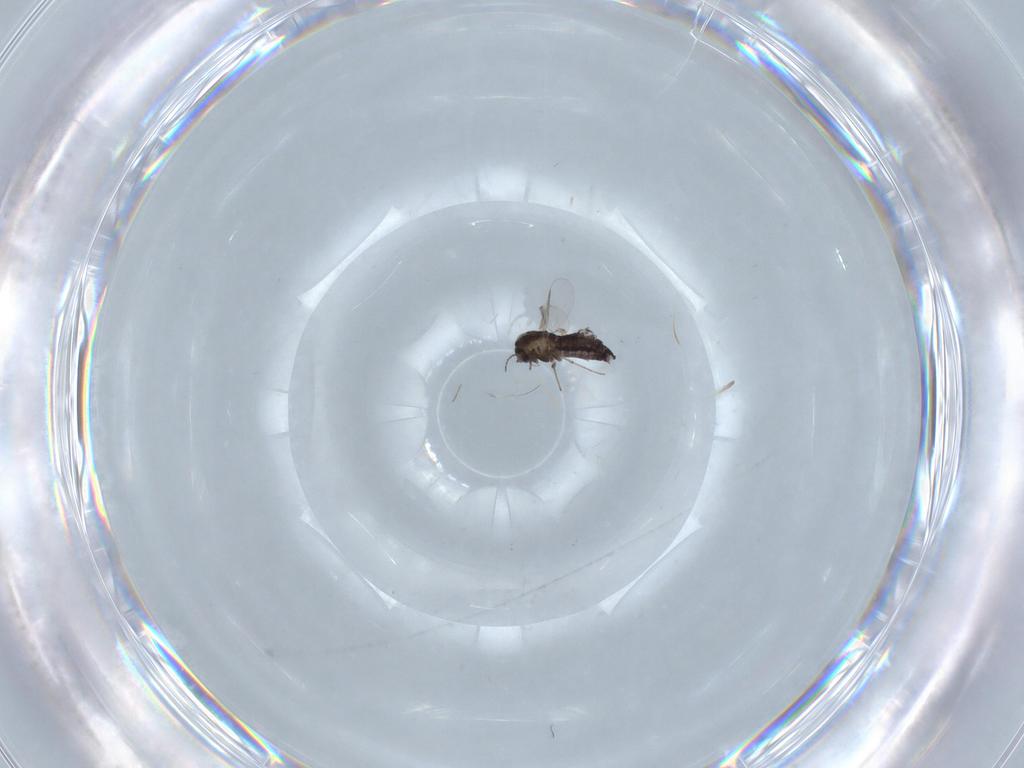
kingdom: Animalia
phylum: Arthropoda
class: Insecta
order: Diptera
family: Chironomidae
